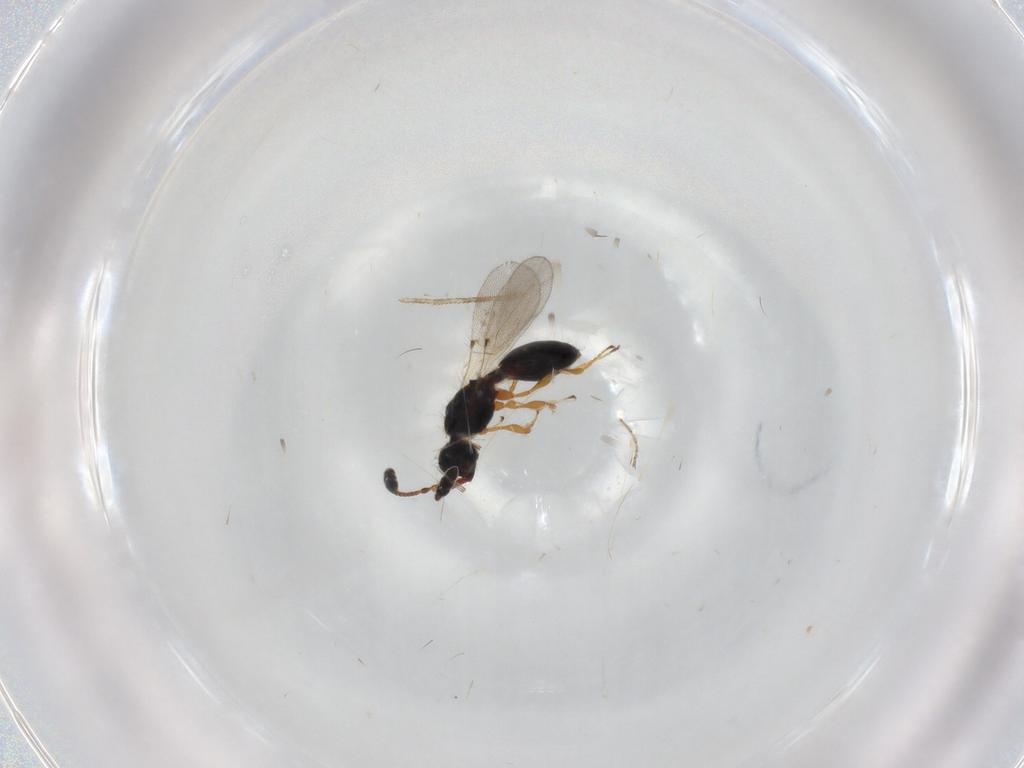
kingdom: Animalia
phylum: Arthropoda
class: Insecta
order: Hymenoptera
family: Diapriidae
